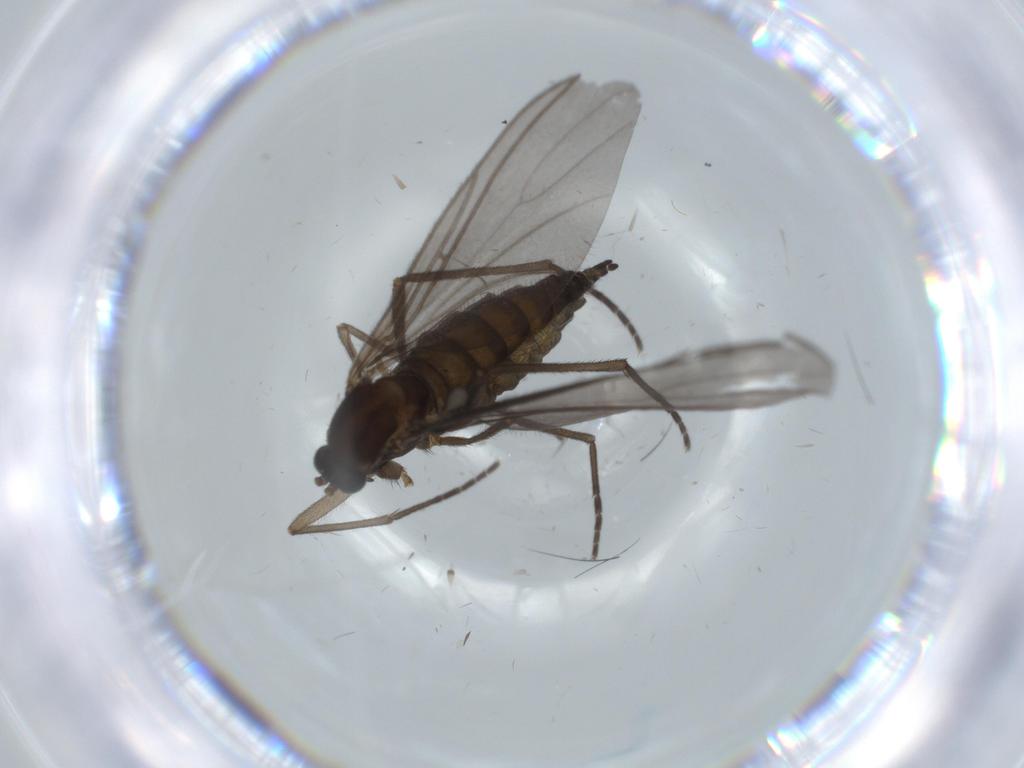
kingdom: Animalia
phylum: Arthropoda
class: Insecta
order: Diptera
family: Sciaridae
